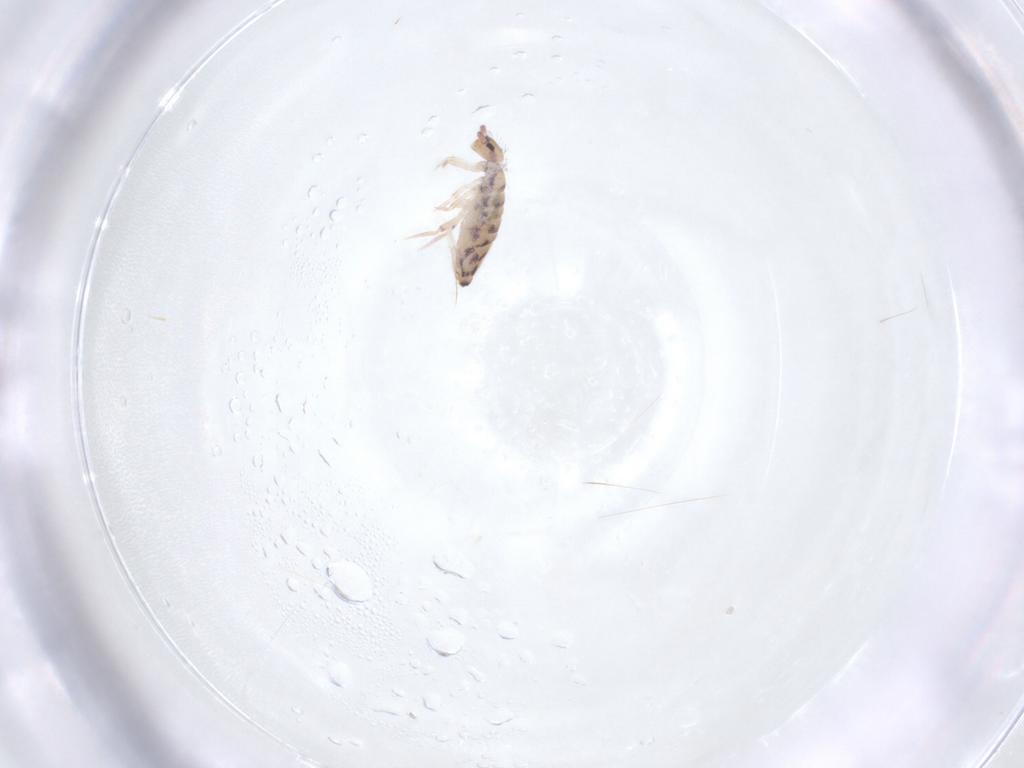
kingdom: Animalia
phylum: Arthropoda
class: Collembola
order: Entomobryomorpha
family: Entomobryidae
